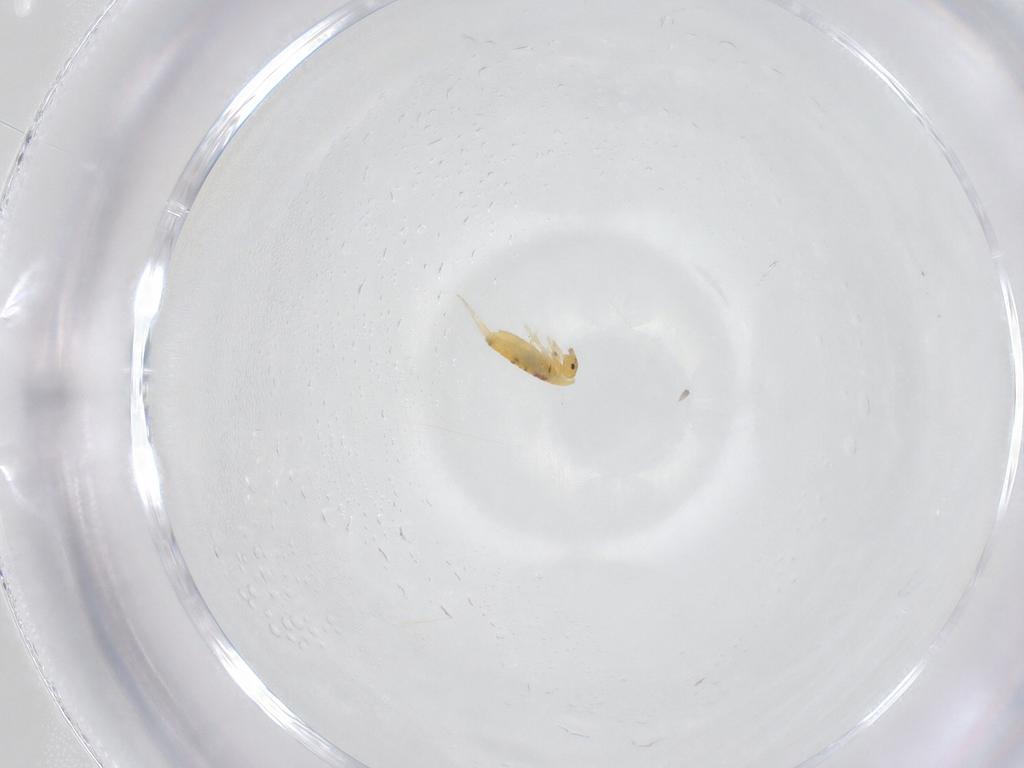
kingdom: Animalia
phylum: Arthropoda
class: Collembola
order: Entomobryomorpha
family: Entomobryidae
